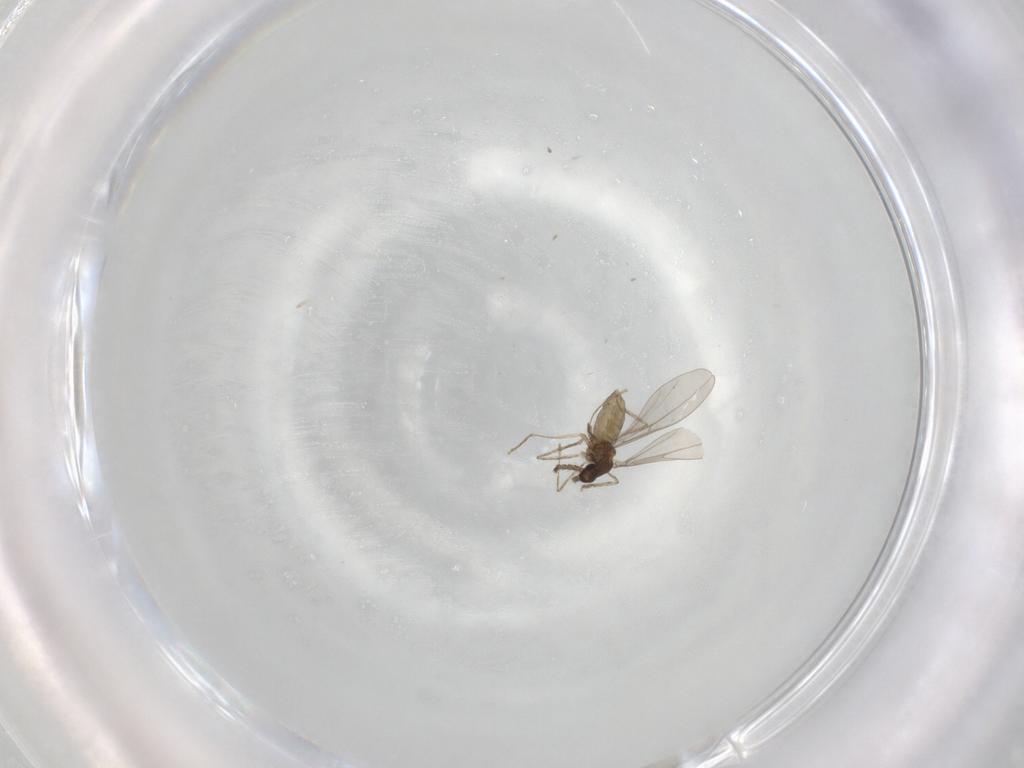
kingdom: Animalia
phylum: Arthropoda
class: Insecta
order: Diptera
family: Cecidomyiidae
